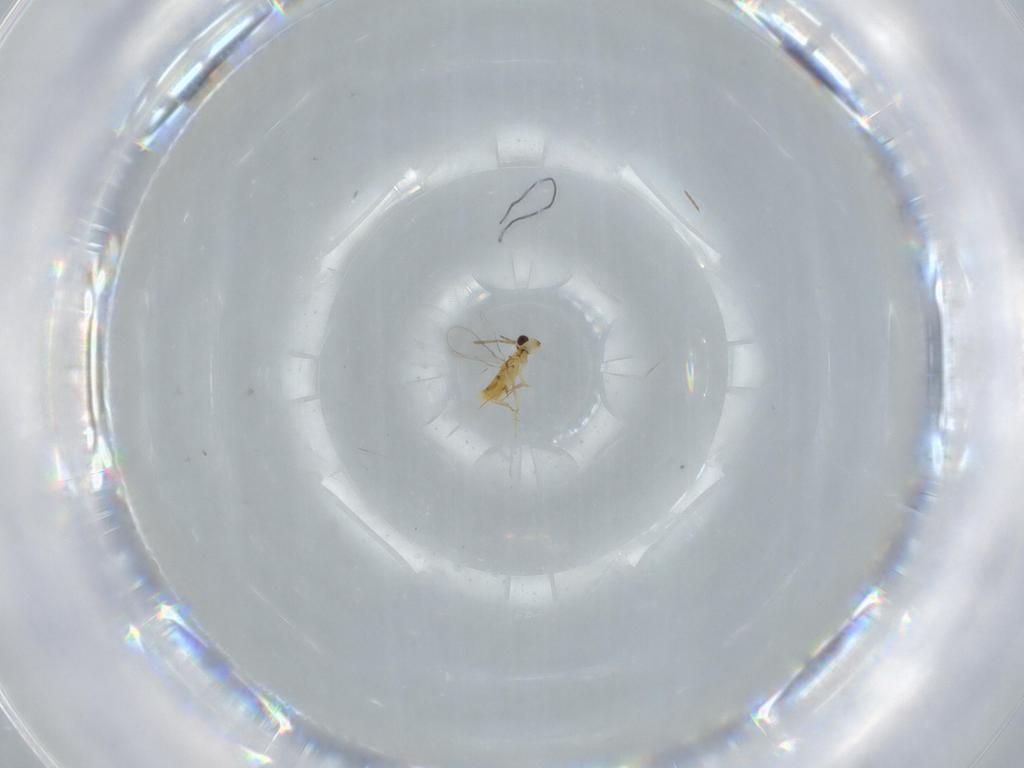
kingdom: Animalia
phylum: Arthropoda
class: Insecta
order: Hymenoptera
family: Aphelinidae
